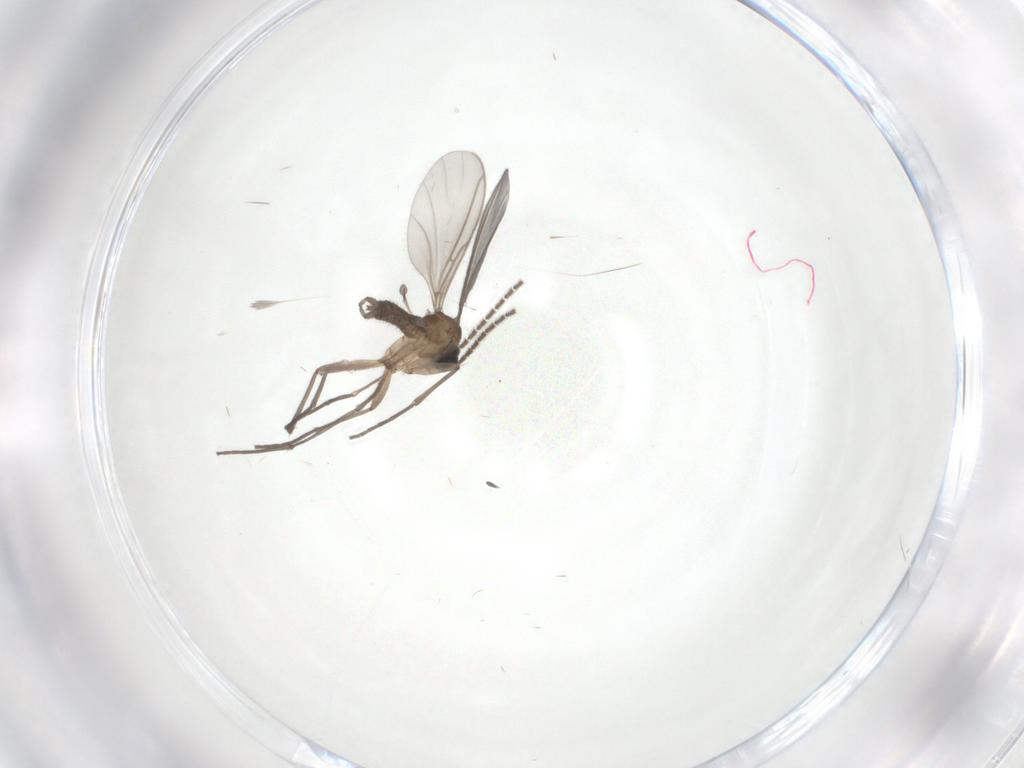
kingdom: Animalia
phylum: Arthropoda
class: Insecta
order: Diptera
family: Sciaridae
